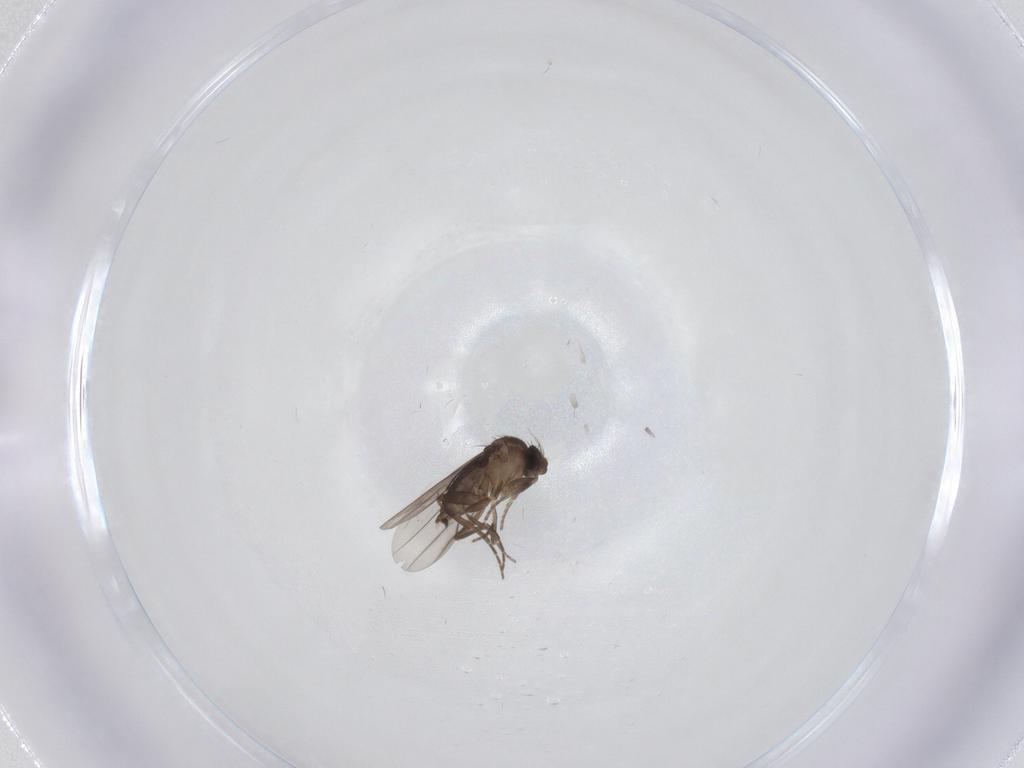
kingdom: Animalia
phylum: Arthropoda
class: Insecta
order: Diptera
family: Phoridae
